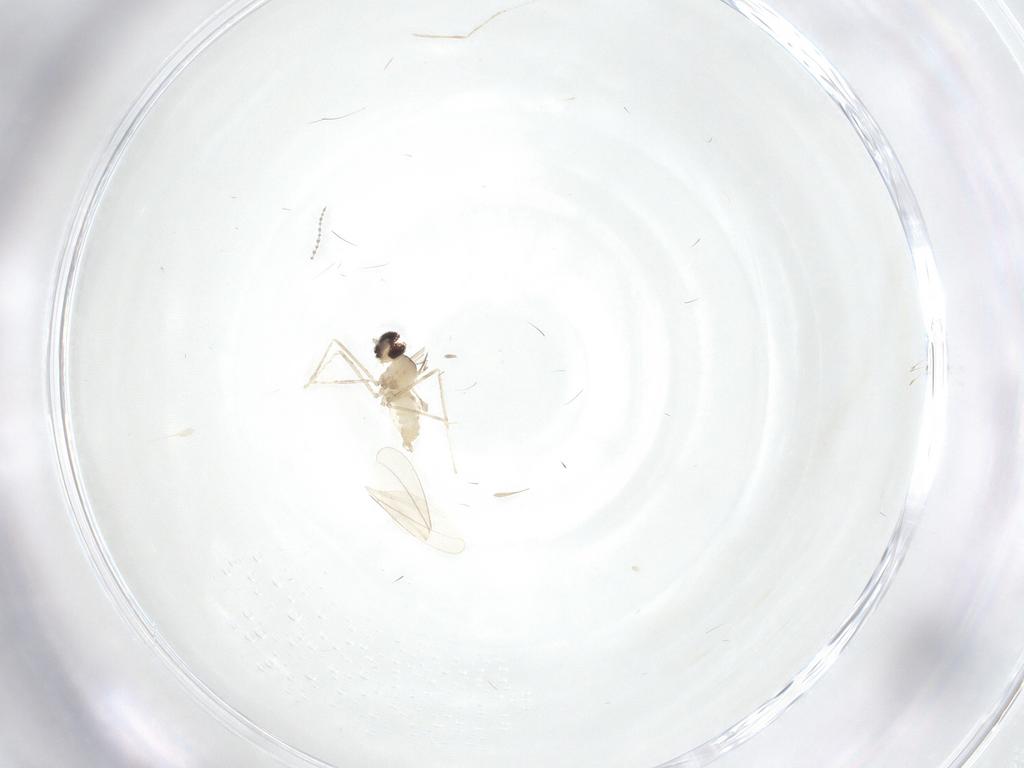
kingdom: Animalia
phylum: Arthropoda
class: Insecta
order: Diptera
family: Cecidomyiidae
